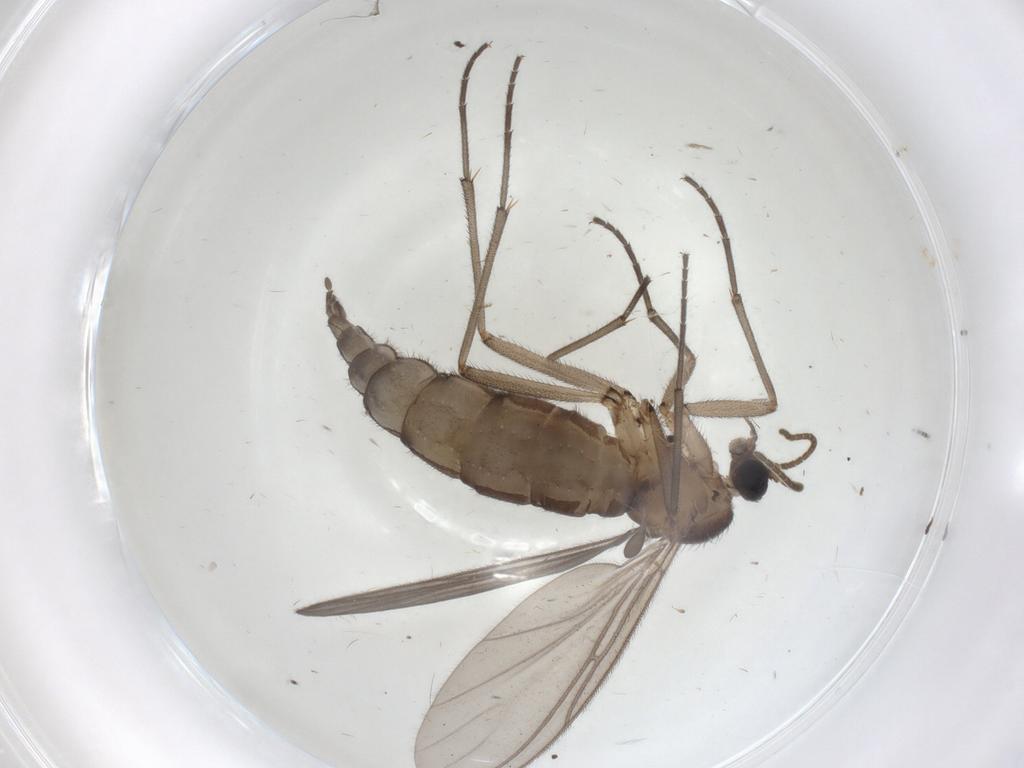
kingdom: Animalia
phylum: Arthropoda
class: Insecta
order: Diptera
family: Ceratopogonidae
